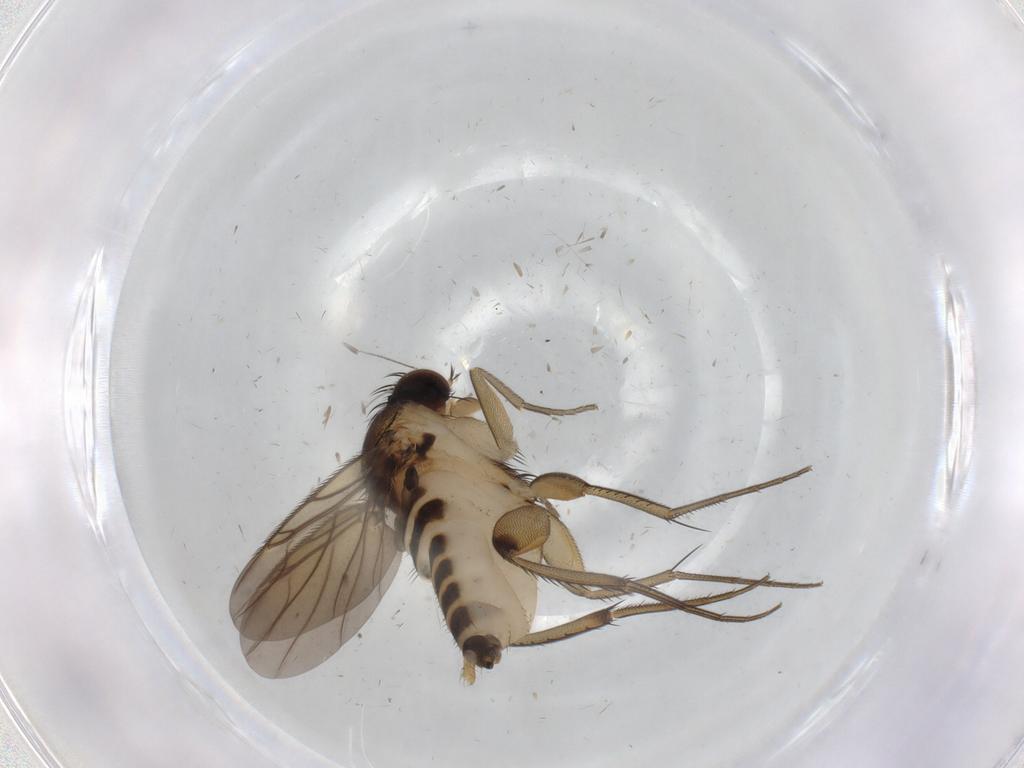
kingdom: Animalia
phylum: Arthropoda
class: Insecta
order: Diptera
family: Phoridae
